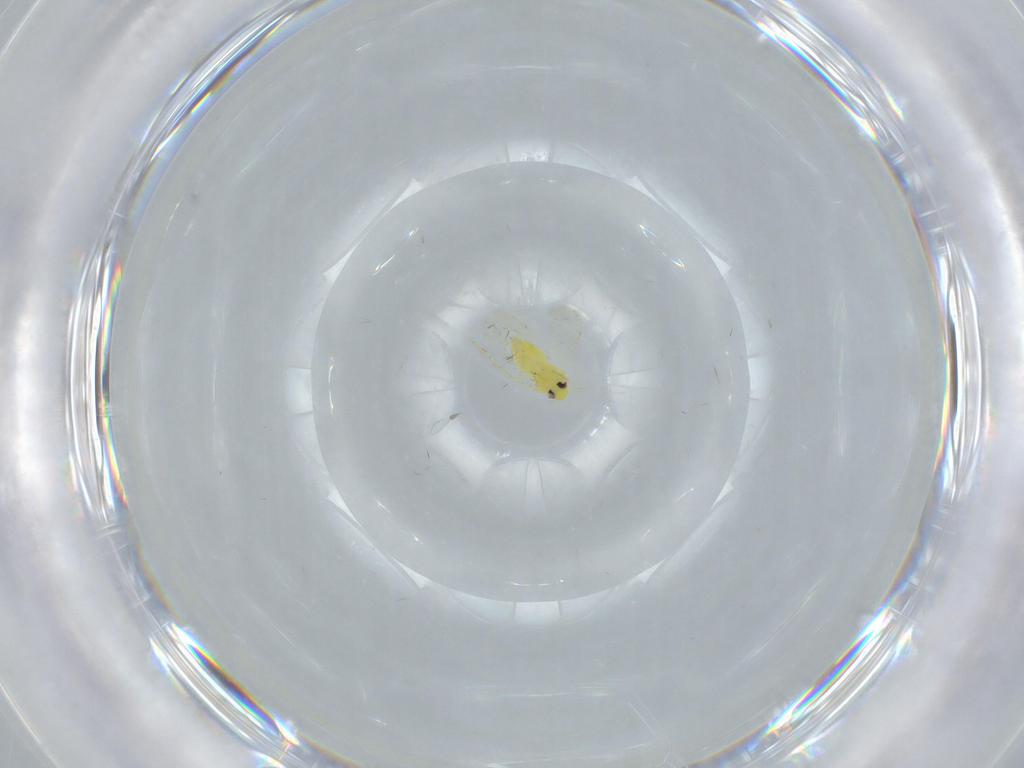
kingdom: Animalia
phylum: Arthropoda
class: Insecta
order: Hemiptera
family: Aleyrodidae
